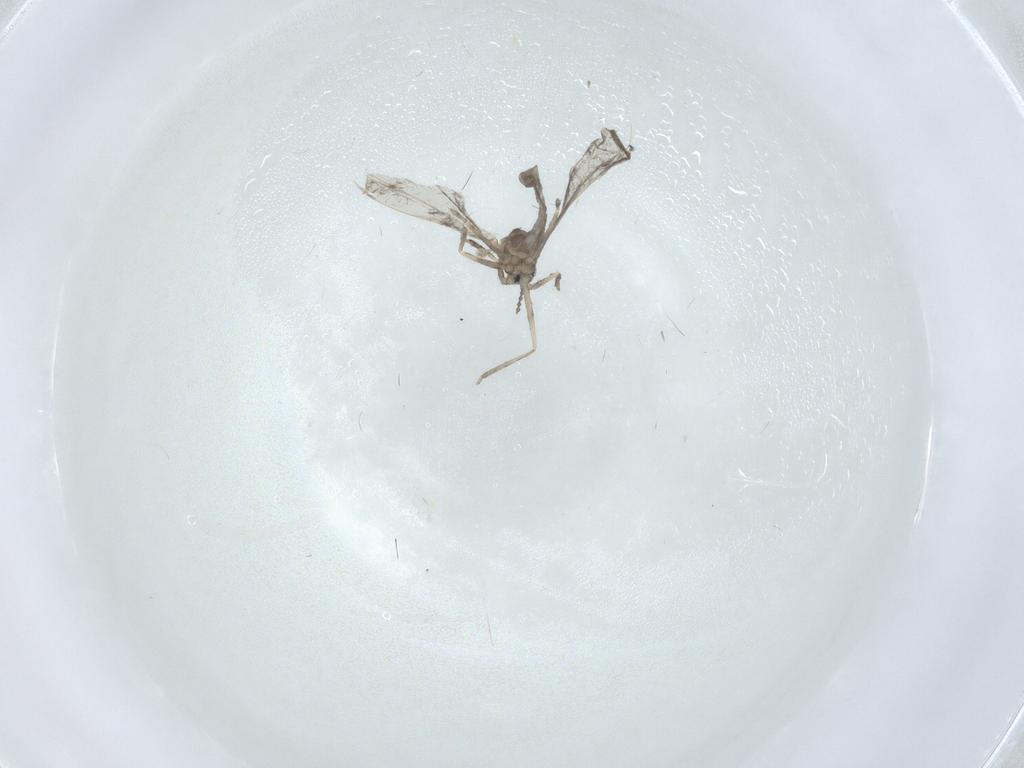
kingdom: Animalia
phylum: Arthropoda
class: Insecta
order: Diptera
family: Cecidomyiidae
